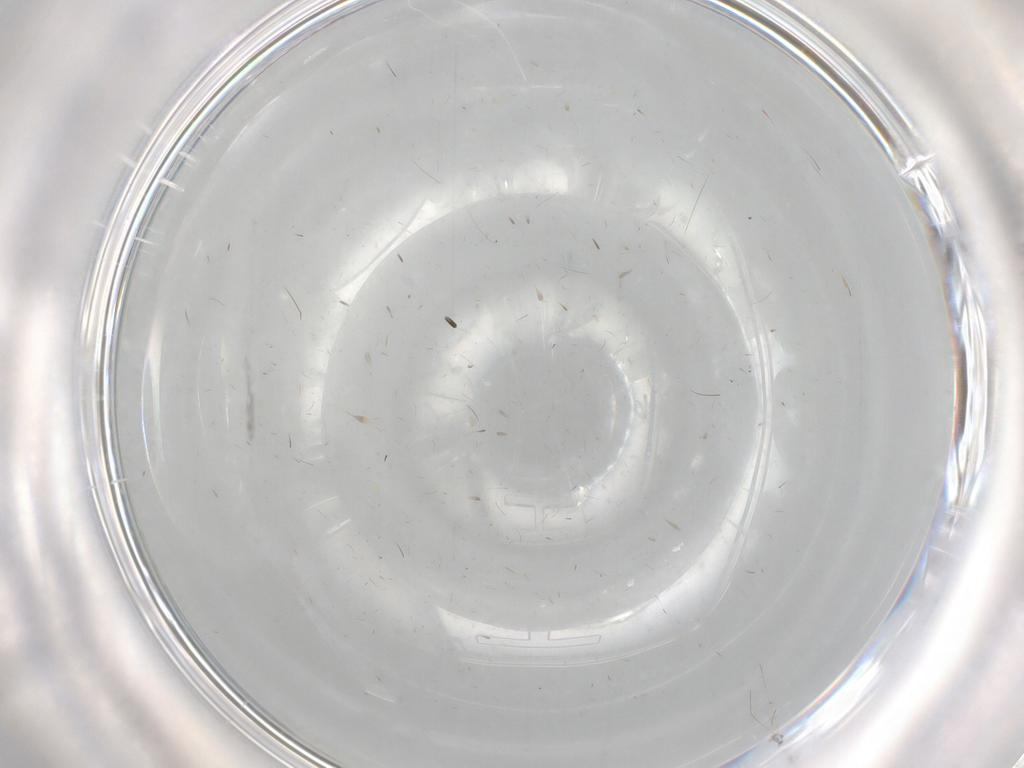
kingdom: Animalia
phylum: Arthropoda
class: Insecta
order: Diptera
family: Chironomidae
